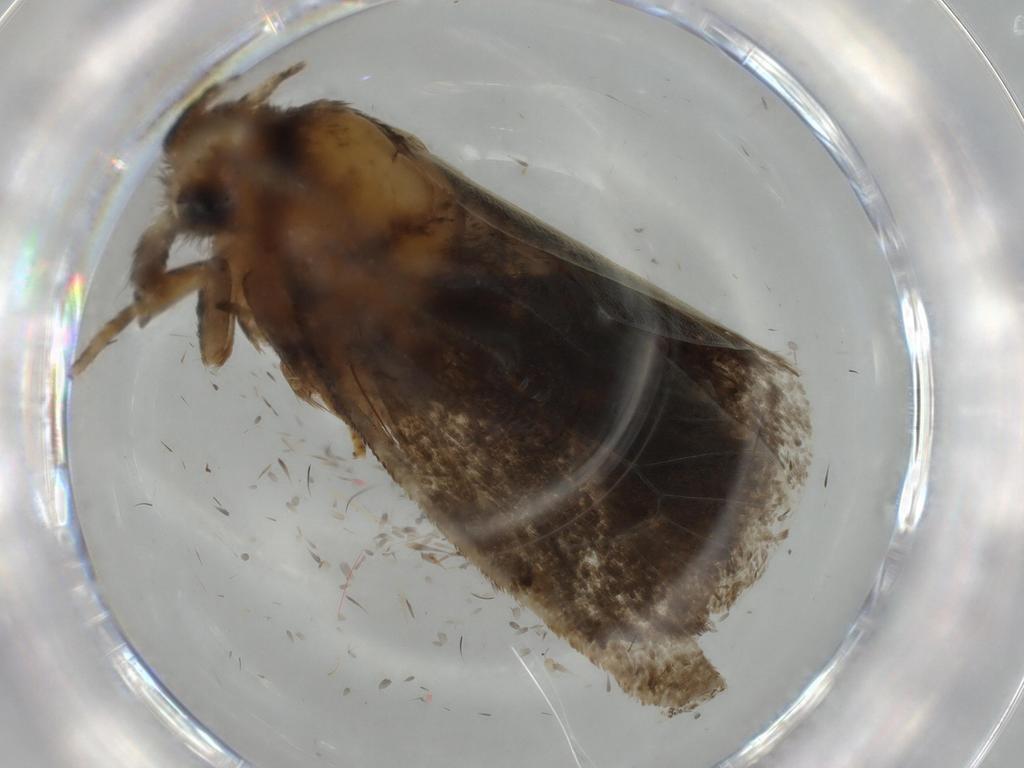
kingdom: Animalia
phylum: Arthropoda
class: Insecta
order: Lepidoptera
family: Tineidae
